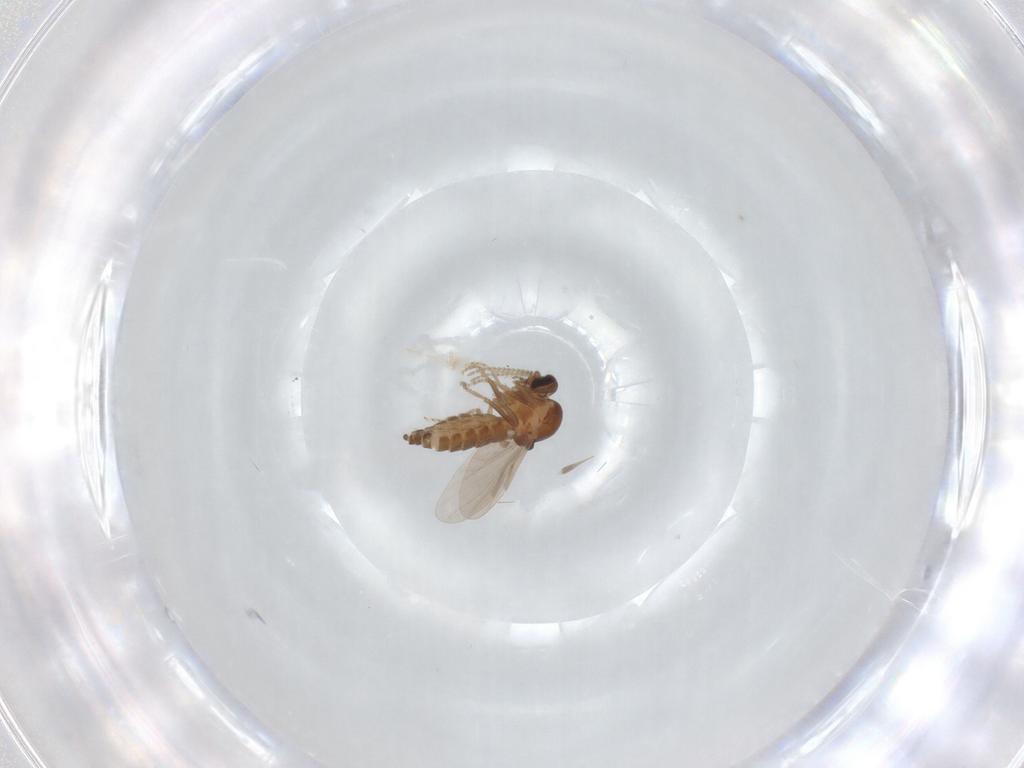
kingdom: Animalia
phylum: Arthropoda
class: Insecta
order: Diptera
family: Ceratopogonidae
